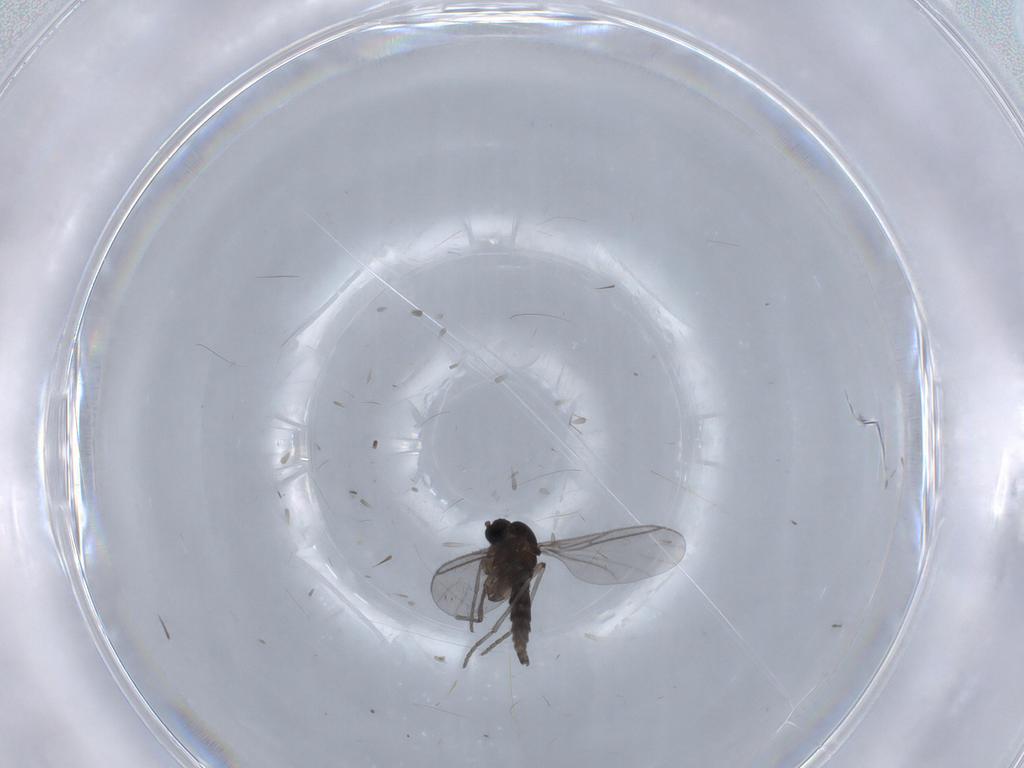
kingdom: Animalia
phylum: Arthropoda
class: Insecta
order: Diptera
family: Ceratopogonidae
